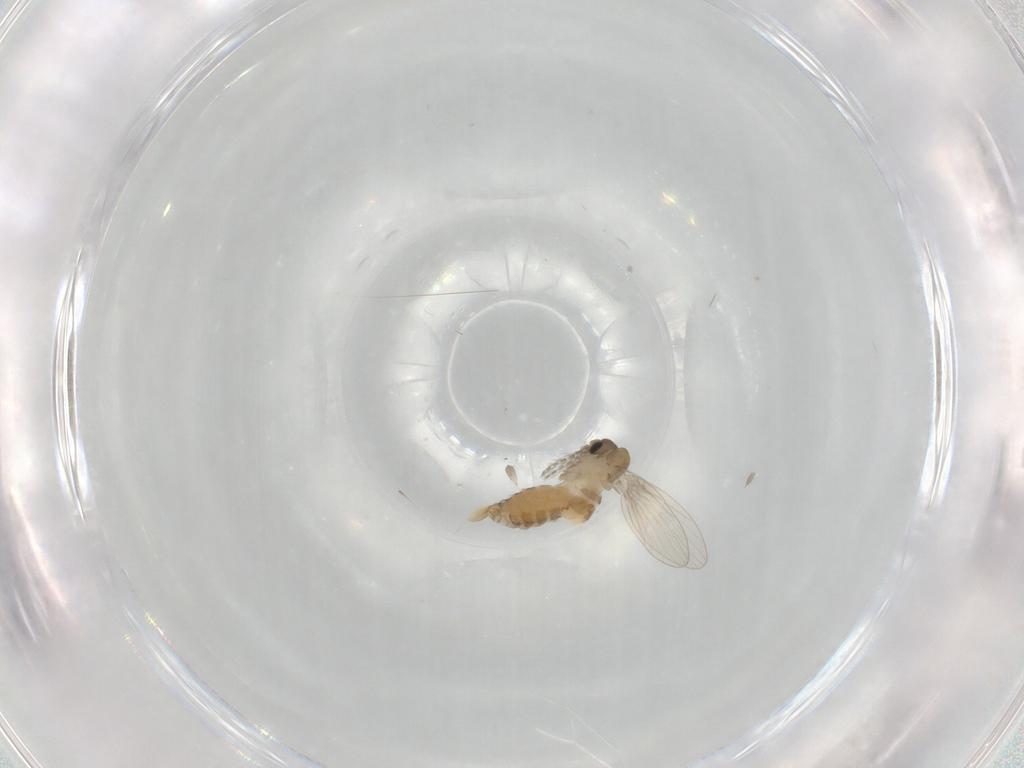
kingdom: Animalia
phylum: Arthropoda
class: Insecta
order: Diptera
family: Psychodidae
